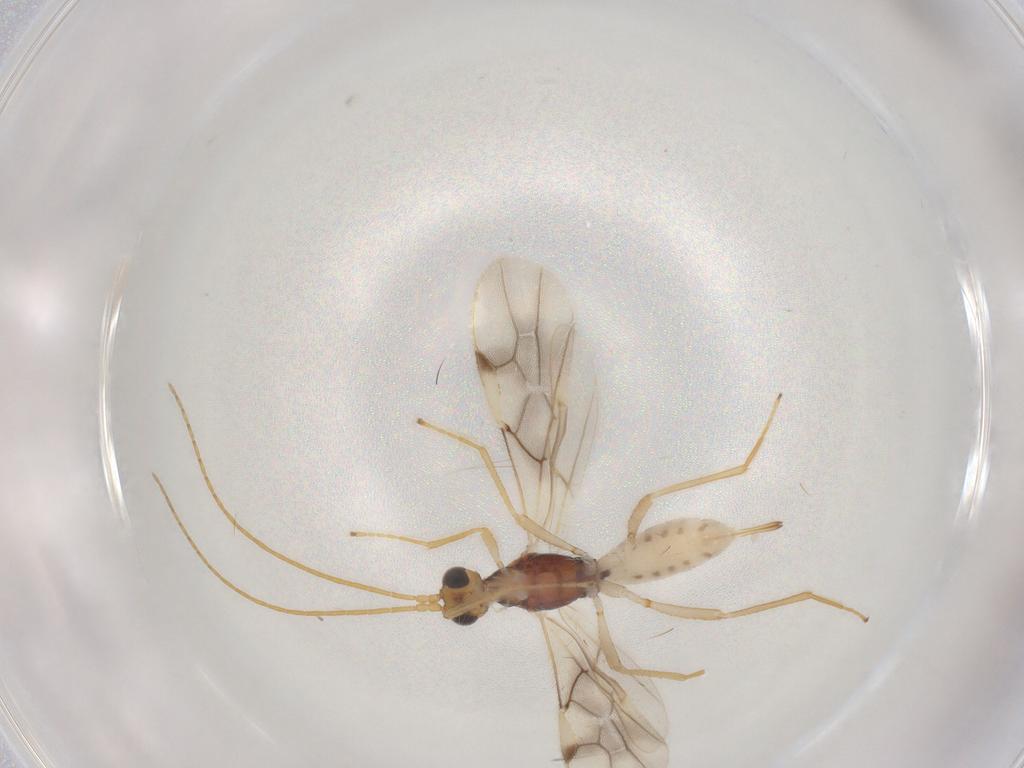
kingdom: Animalia
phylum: Arthropoda
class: Insecta
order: Hymenoptera
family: Braconidae
